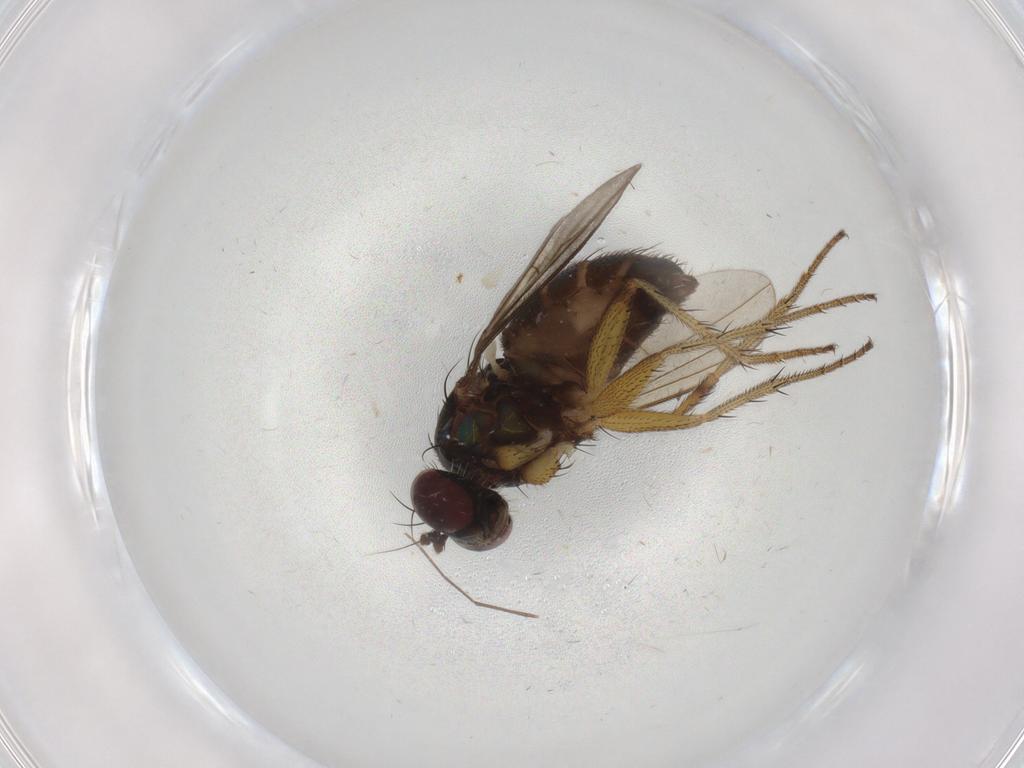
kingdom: Animalia
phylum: Arthropoda
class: Insecta
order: Diptera
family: Dolichopodidae
